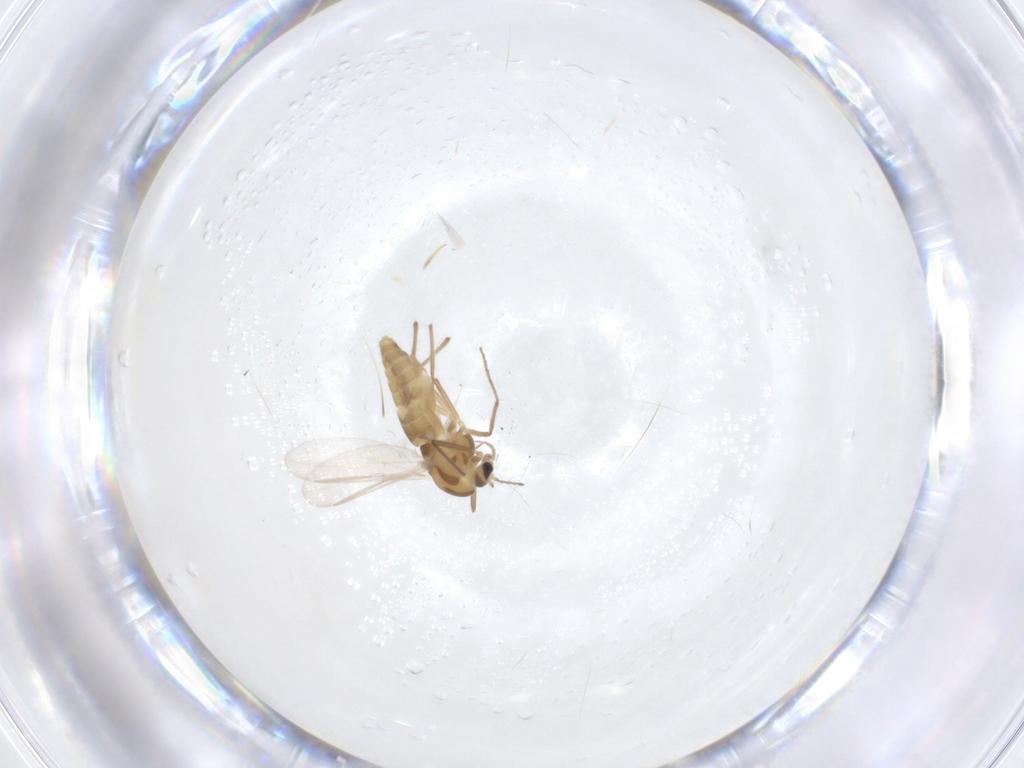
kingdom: Animalia
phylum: Arthropoda
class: Insecta
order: Diptera
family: Chironomidae
